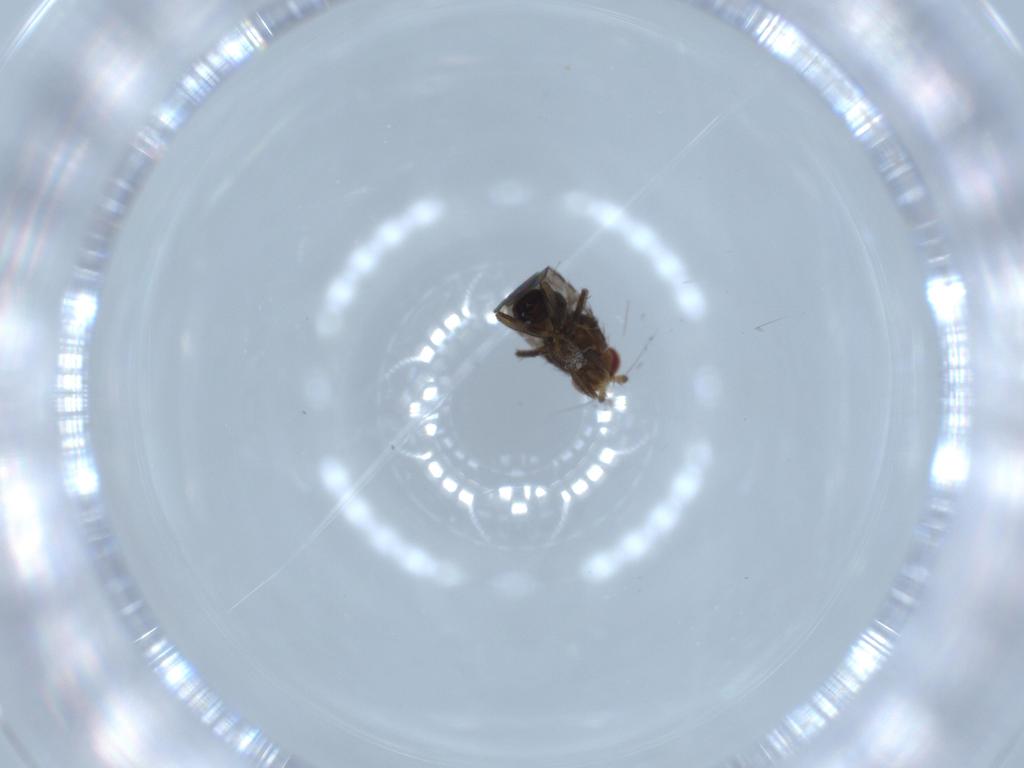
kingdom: Animalia
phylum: Arthropoda
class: Insecta
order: Diptera
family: Chironomidae
